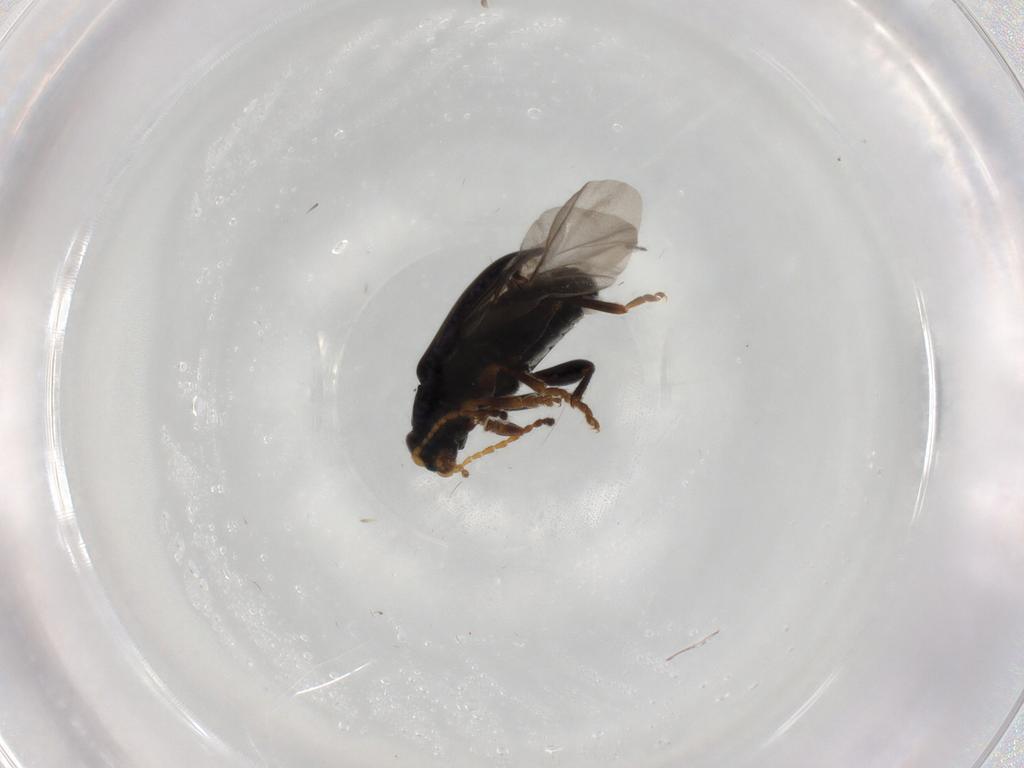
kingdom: Animalia
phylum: Arthropoda
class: Insecta
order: Coleoptera
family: Chrysomelidae
